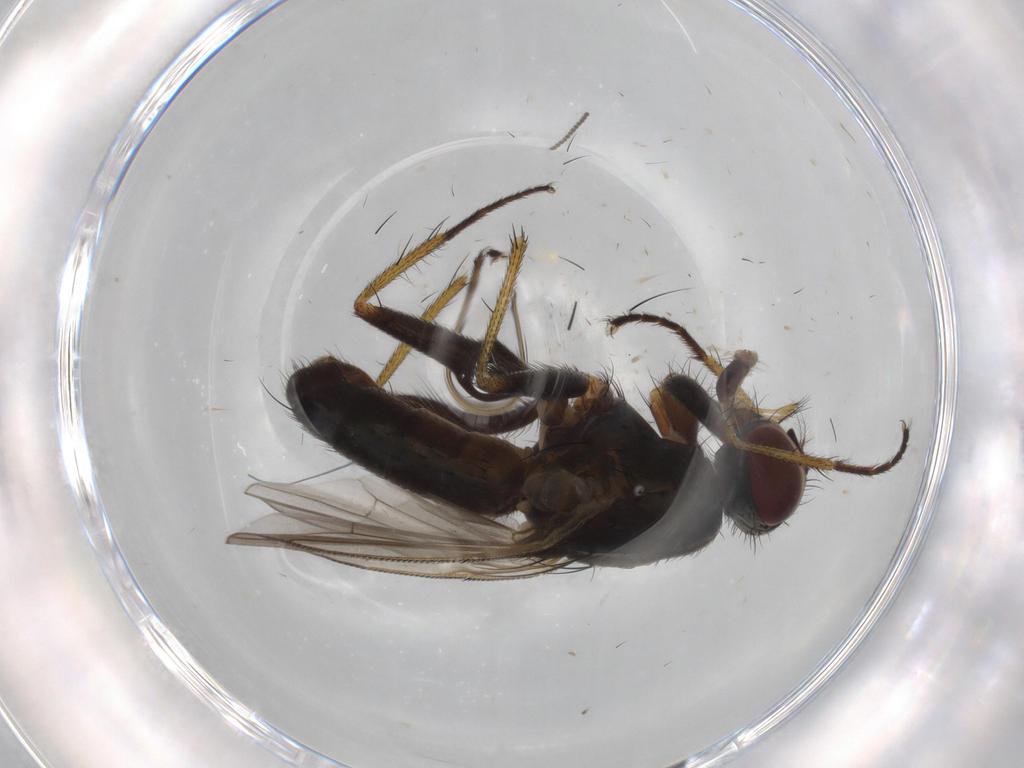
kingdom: Animalia
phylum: Arthropoda
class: Insecta
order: Diptera
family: Muscidae
